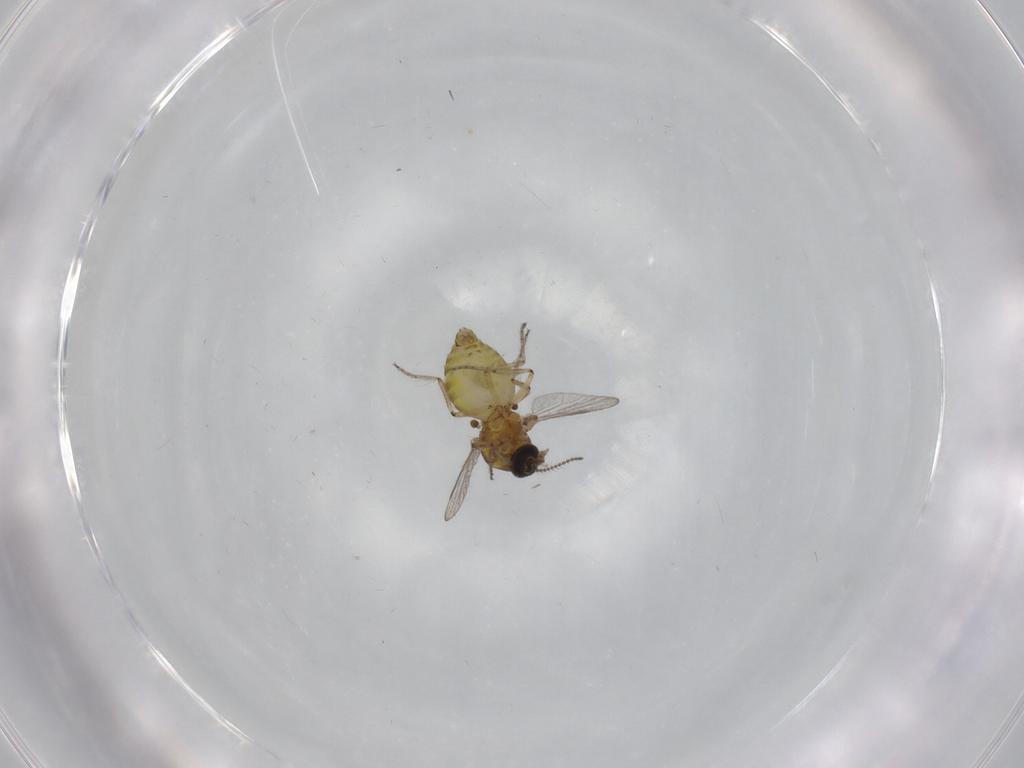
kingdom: Animalia
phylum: Arthropoda
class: Insecta
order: Diptera
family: Ceratopogonidae
